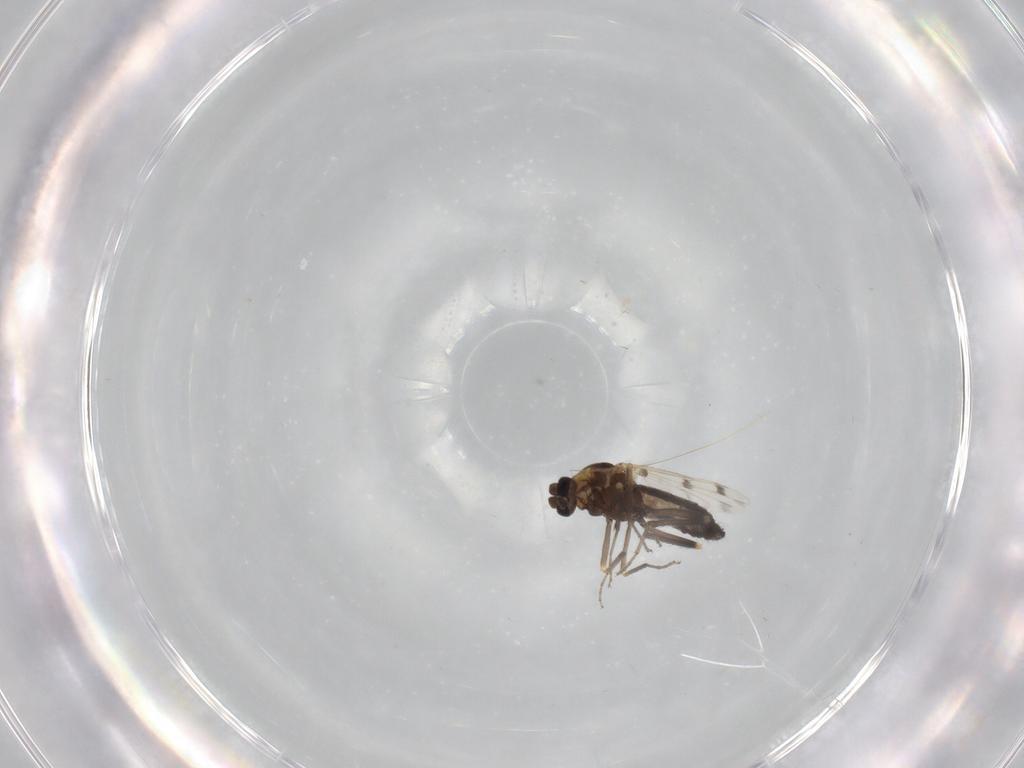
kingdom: Animalia
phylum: Arthropoda
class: Insecta
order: Diptera
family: Ceratopogonidae
